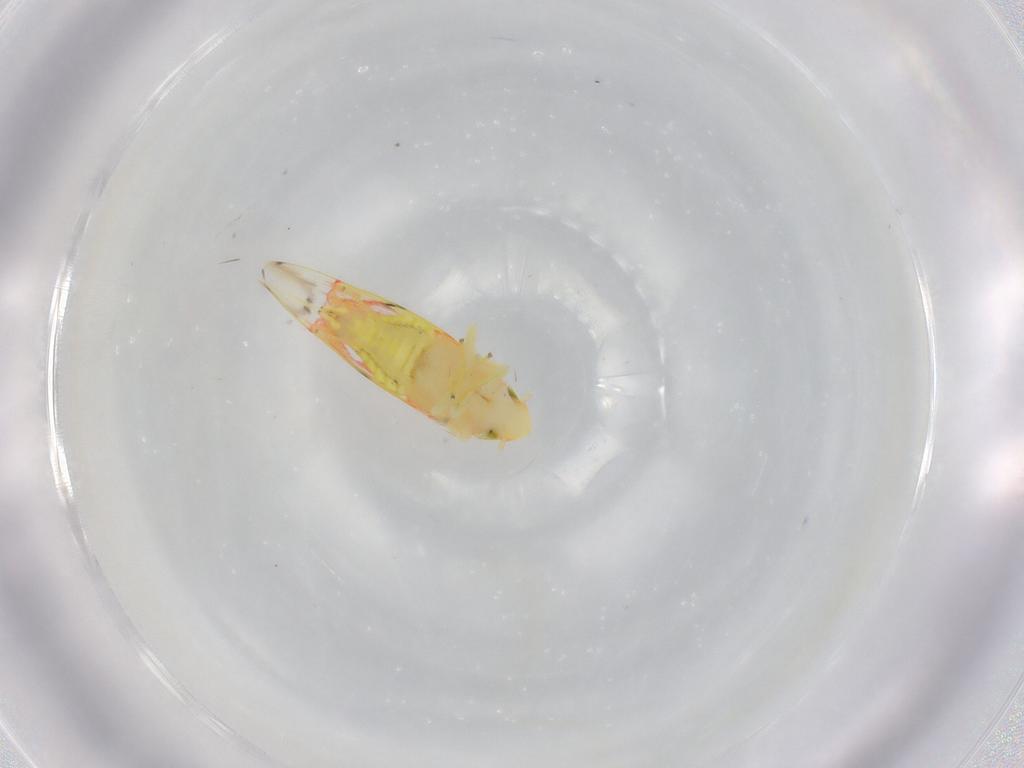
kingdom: Animalia
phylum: Arthropoda
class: Insecta
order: Hemiptera
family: Cicadellidae
